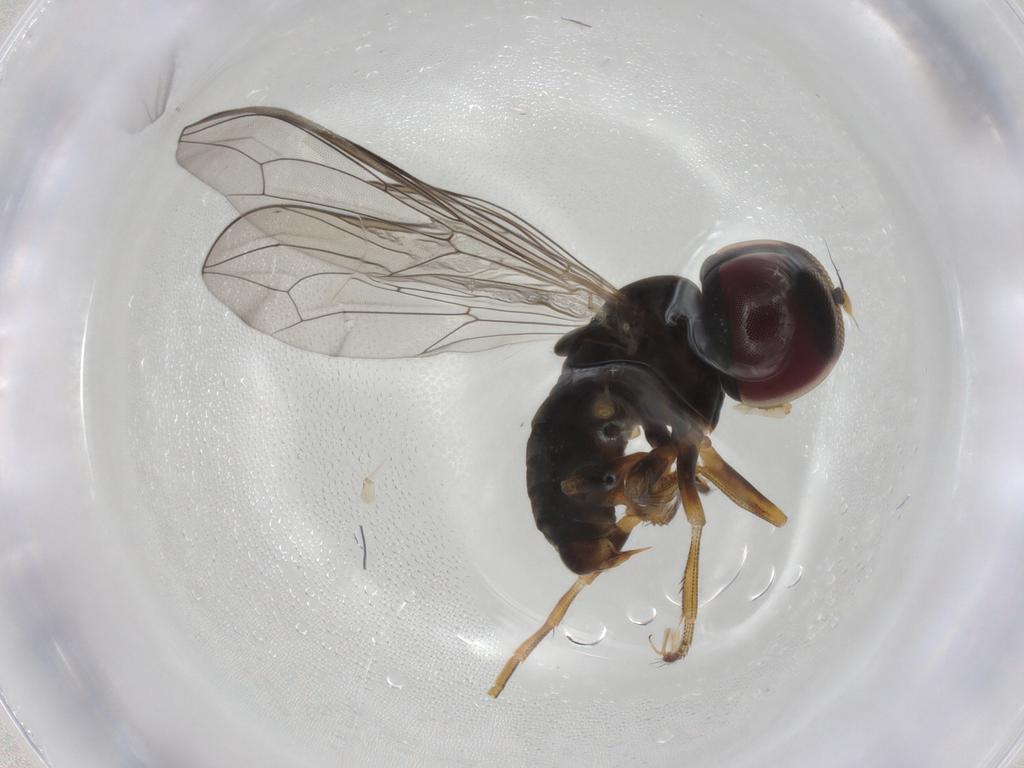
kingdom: Animalia
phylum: Arthropoda
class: Insecta
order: Diptera
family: Pipunculidae
